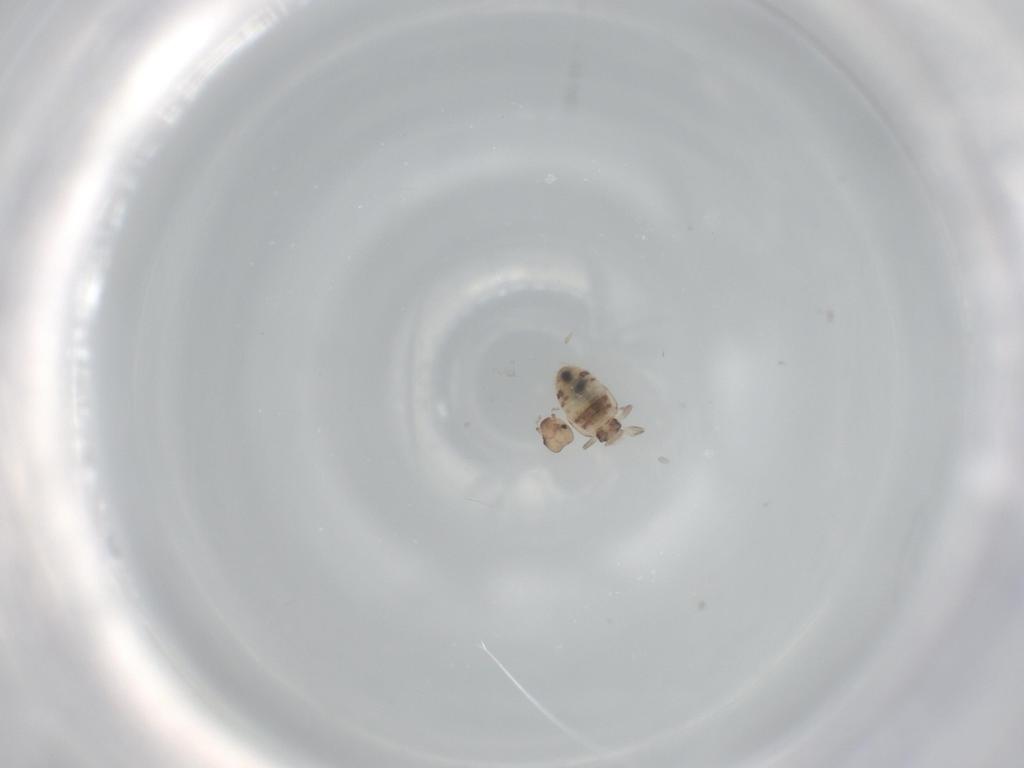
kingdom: Animalia
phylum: Arthropoda
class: Insecta
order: Psocodea
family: Liposcelididae
